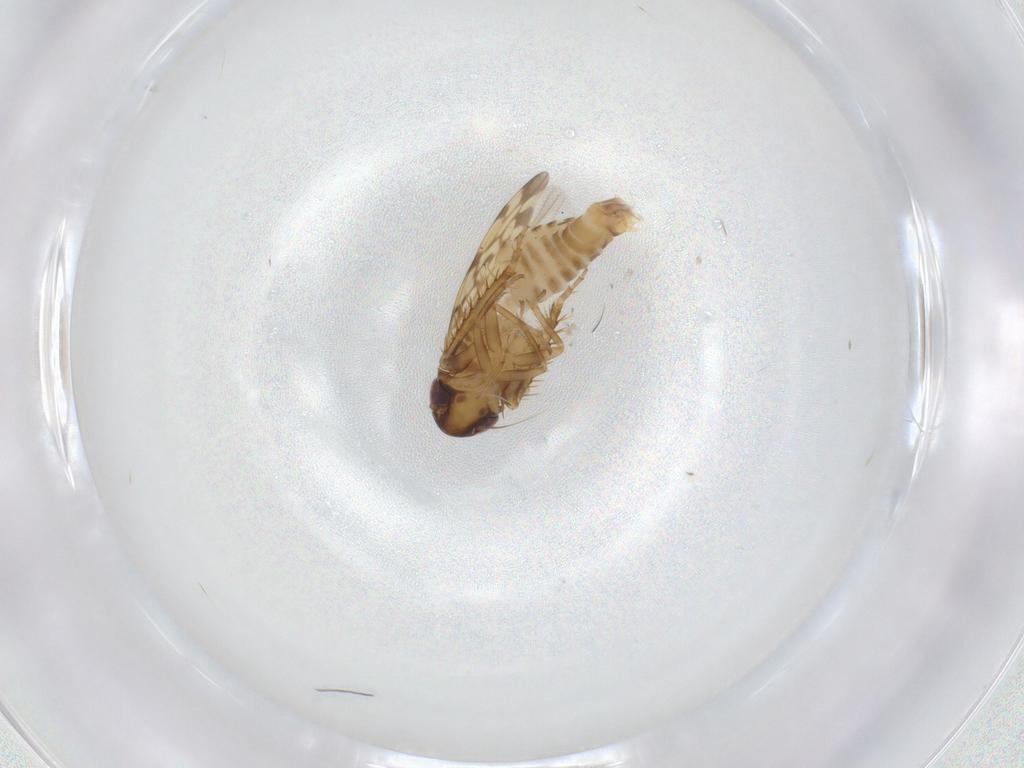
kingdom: Animalia
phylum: Arthropoda
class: Insecta
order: Hemiptera
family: Cicadellidae
